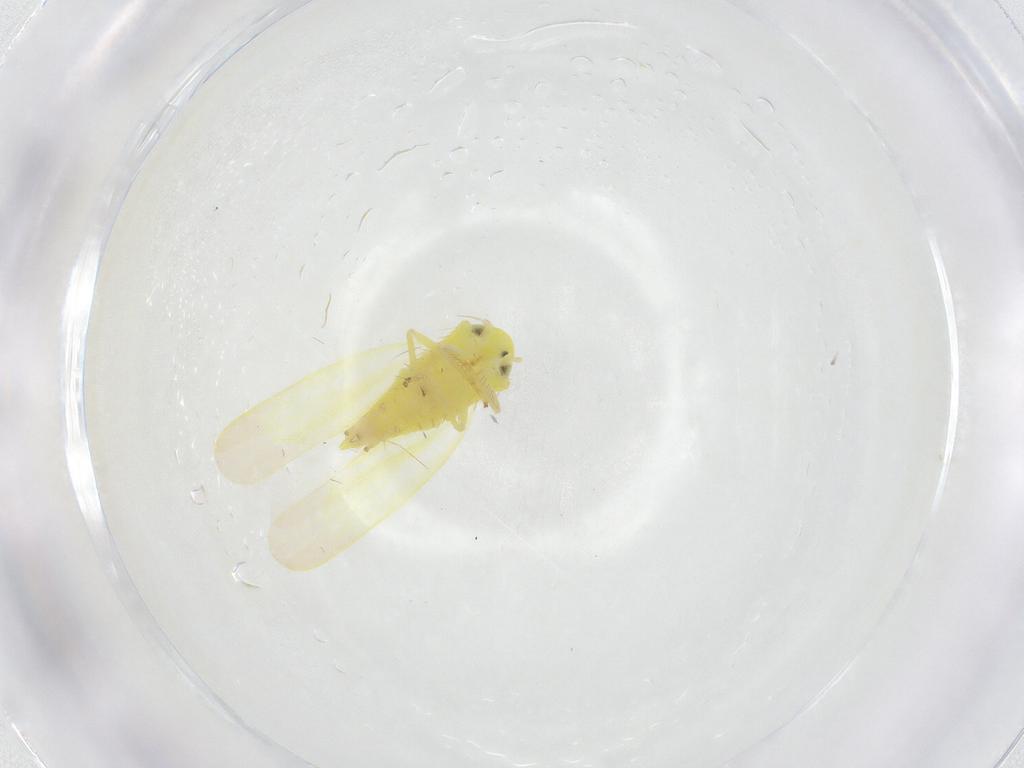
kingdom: Animalia
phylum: Arthropoda
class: Insecta
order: Hemiptera
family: Cicadellidae
